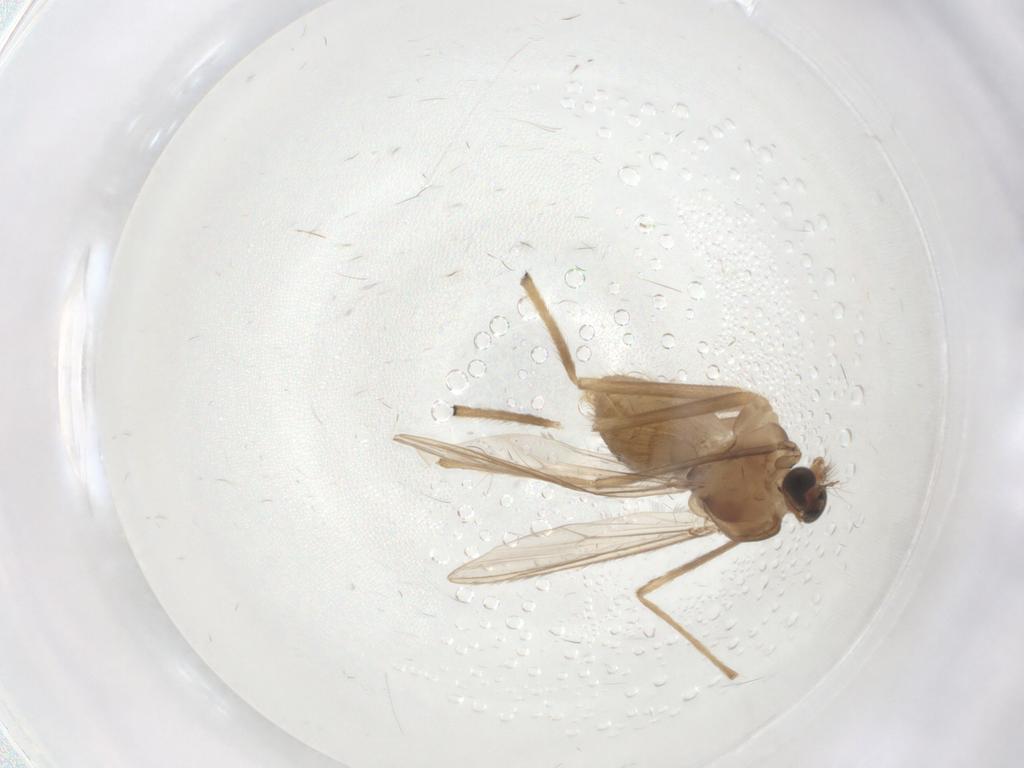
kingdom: Animalia
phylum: Arthropoda
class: Insecta
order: Diptera
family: Chironomidae
